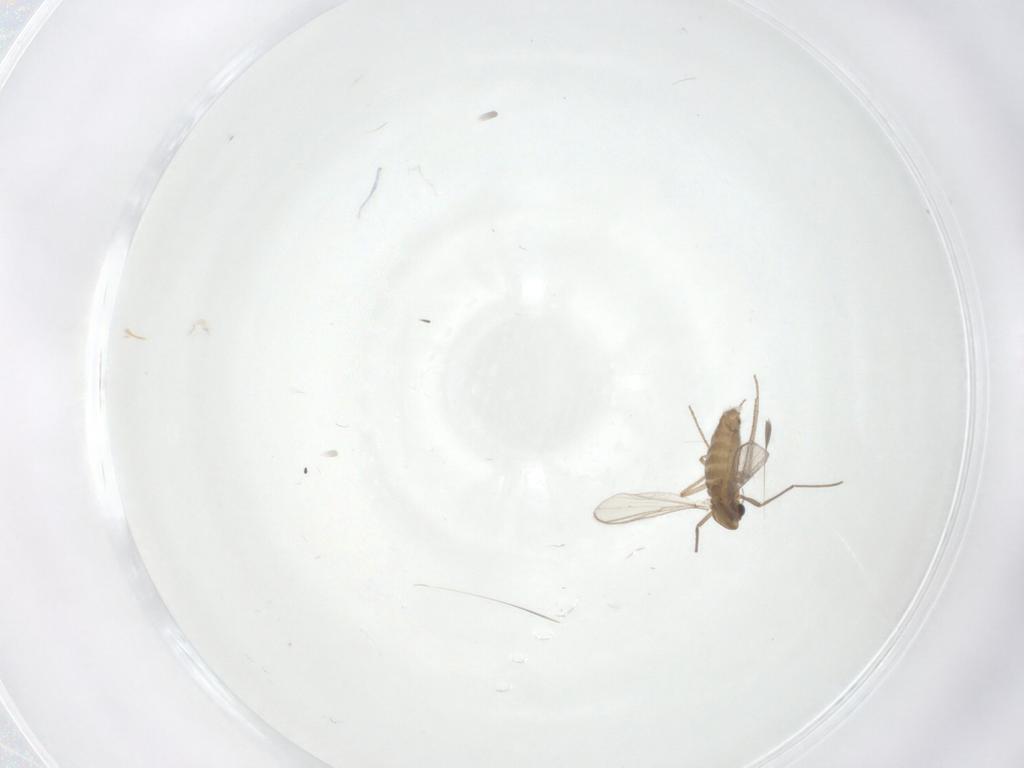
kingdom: Animalia
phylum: Arthropoda
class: Insecta
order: Diptera
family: Chironomidae
